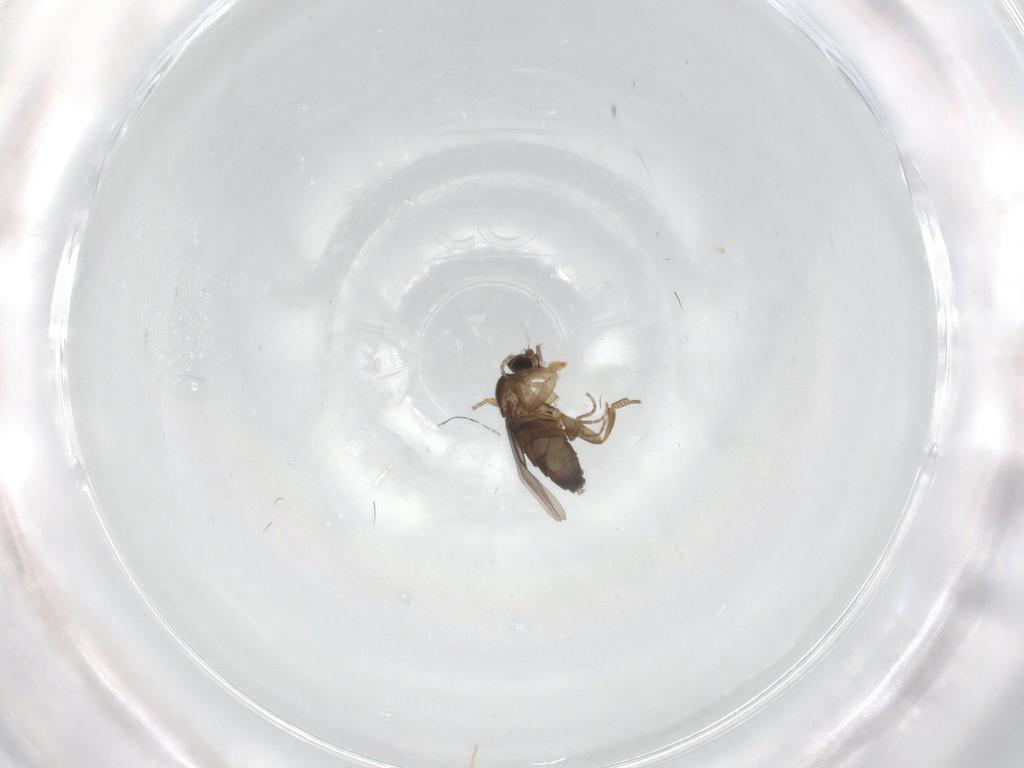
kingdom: Animalia
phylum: Arthropoda
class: Insecta
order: Diptera
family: Phoridae
